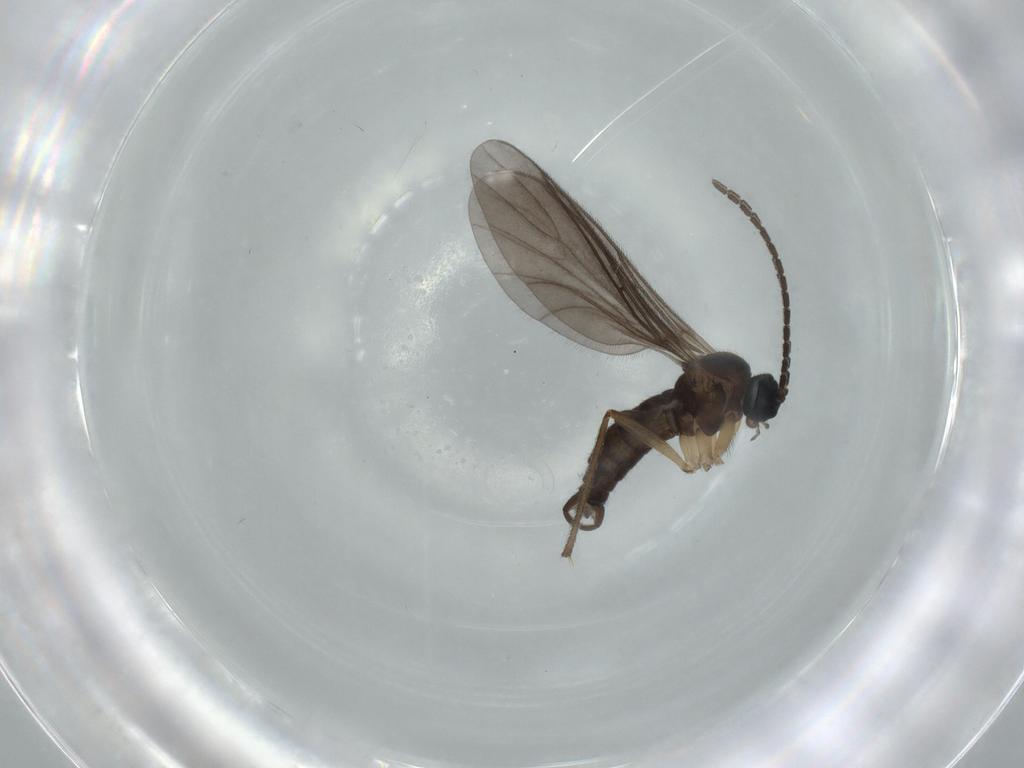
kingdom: Animalia
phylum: Arthropoda
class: Insecta
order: Diptera
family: Sciaridae
